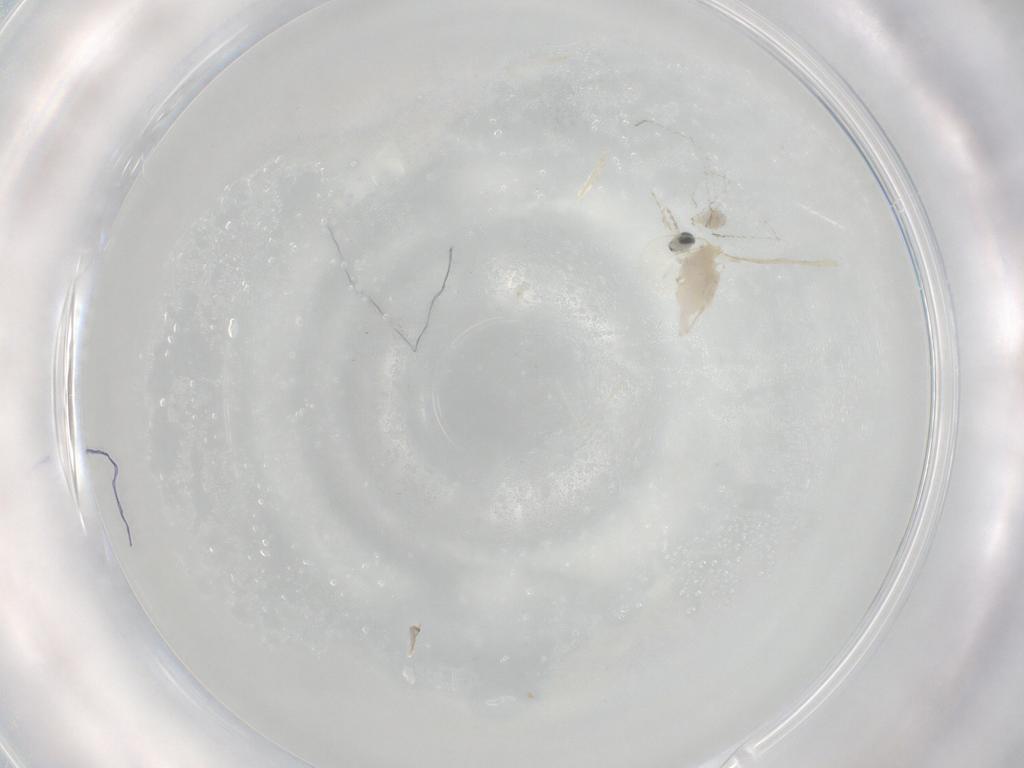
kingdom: Animalia
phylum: Arthropoda
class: Insecta
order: Diptera
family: Cecidomyiidae
